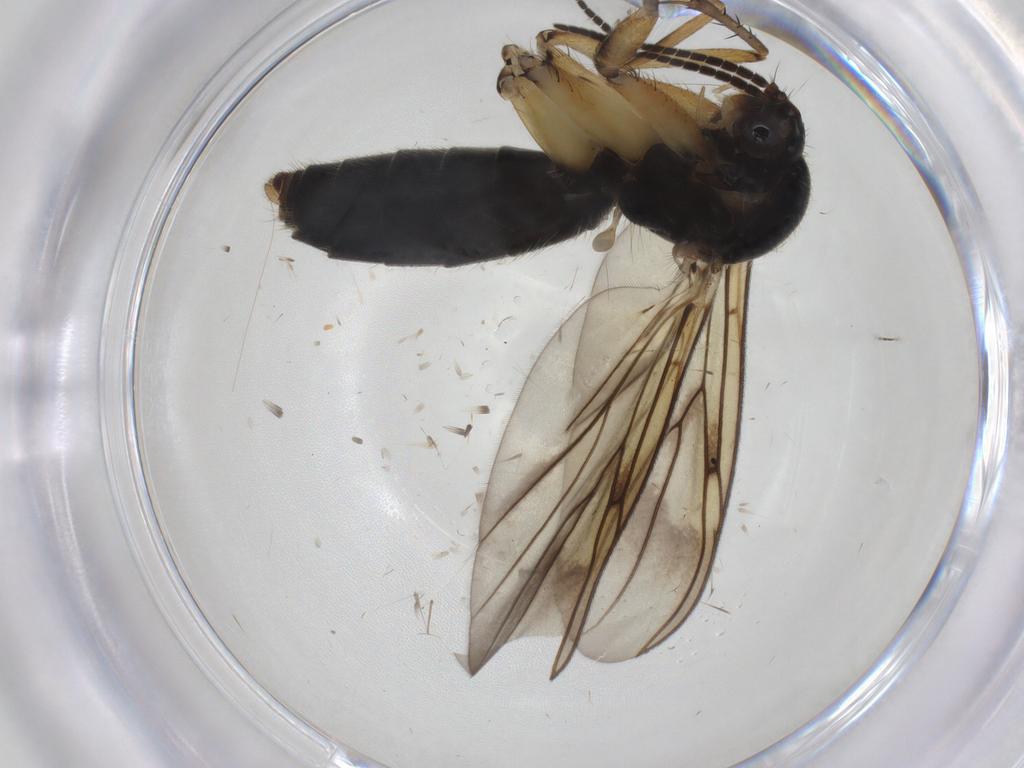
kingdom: Animalia
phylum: Arthropoda
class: Insecta
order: Diptera
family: Mycetophilidae
